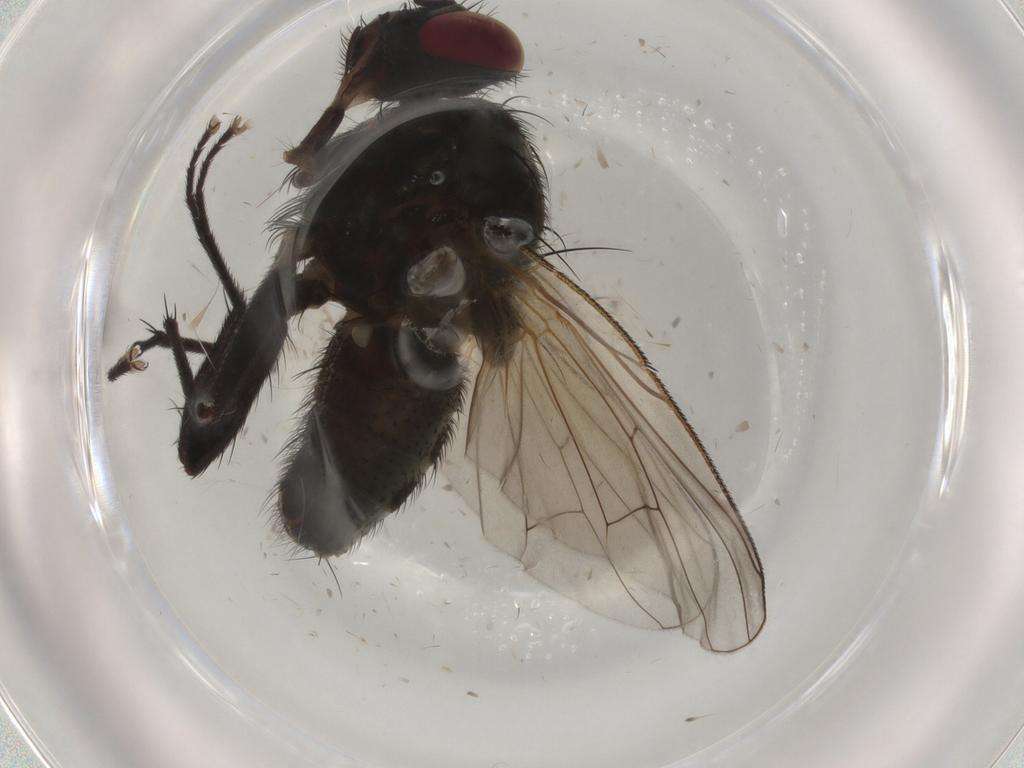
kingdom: Animalia
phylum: Arthropoda
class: Insecta
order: Diptera
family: Chaoboridae
